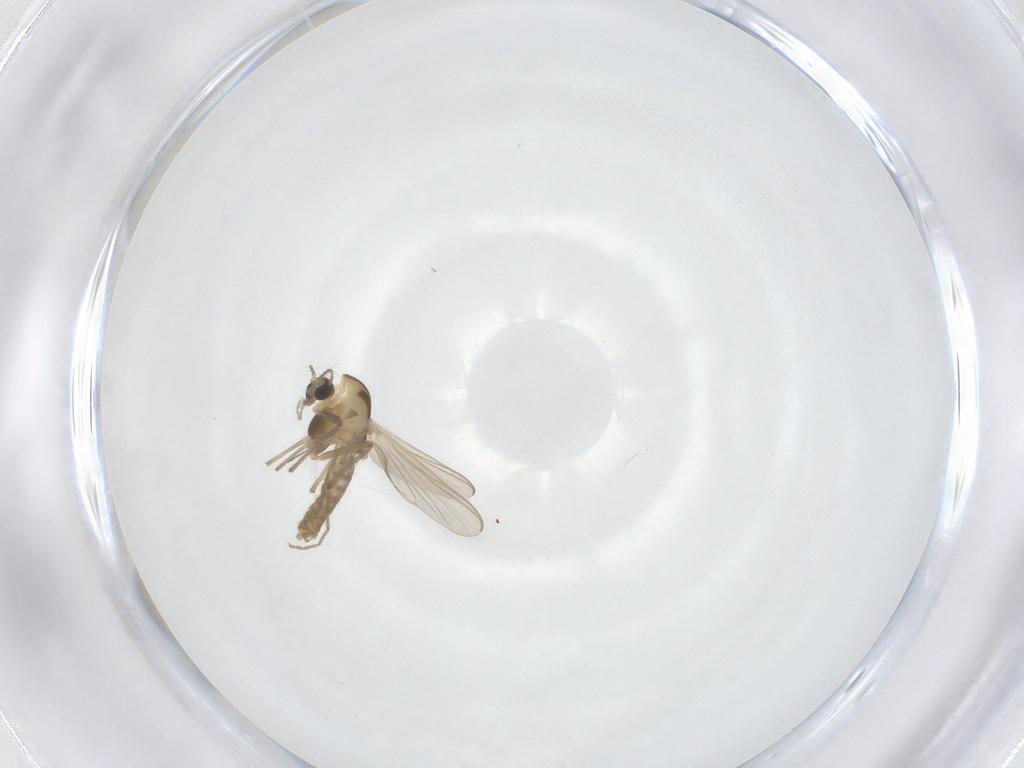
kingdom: Animalia
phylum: Arthropoda
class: Insecta
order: Diptera
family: Chironomidae
